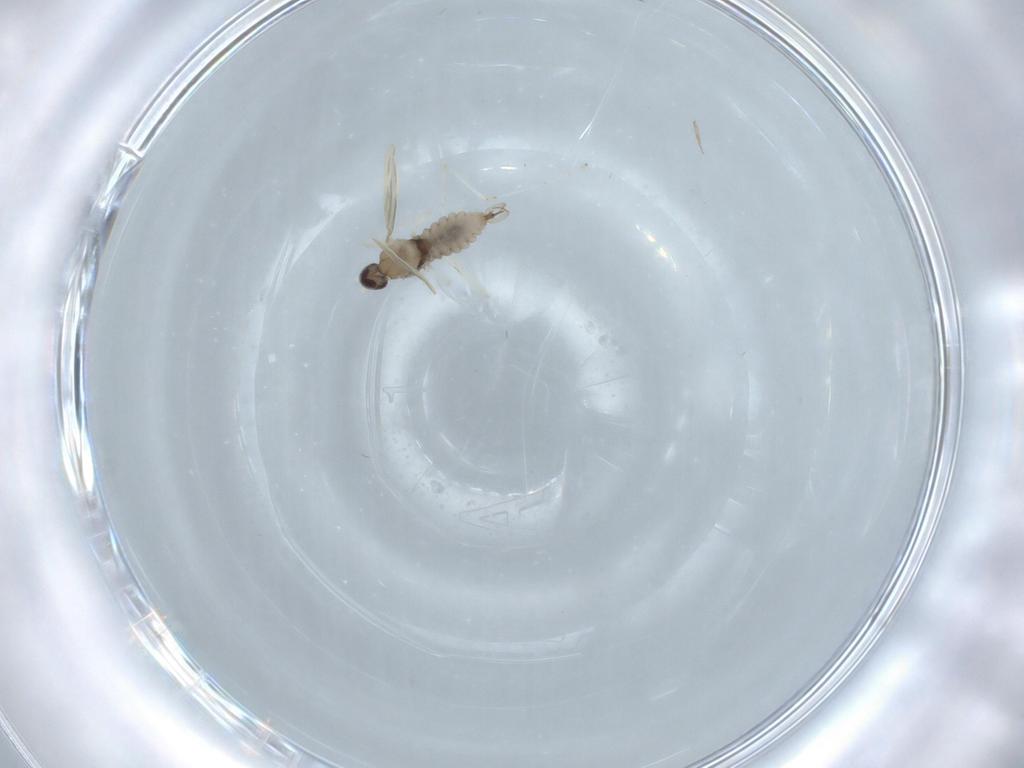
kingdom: Animalia
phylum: Arthropoda
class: Insecta
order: Diptera
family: Cecidomyiidae
